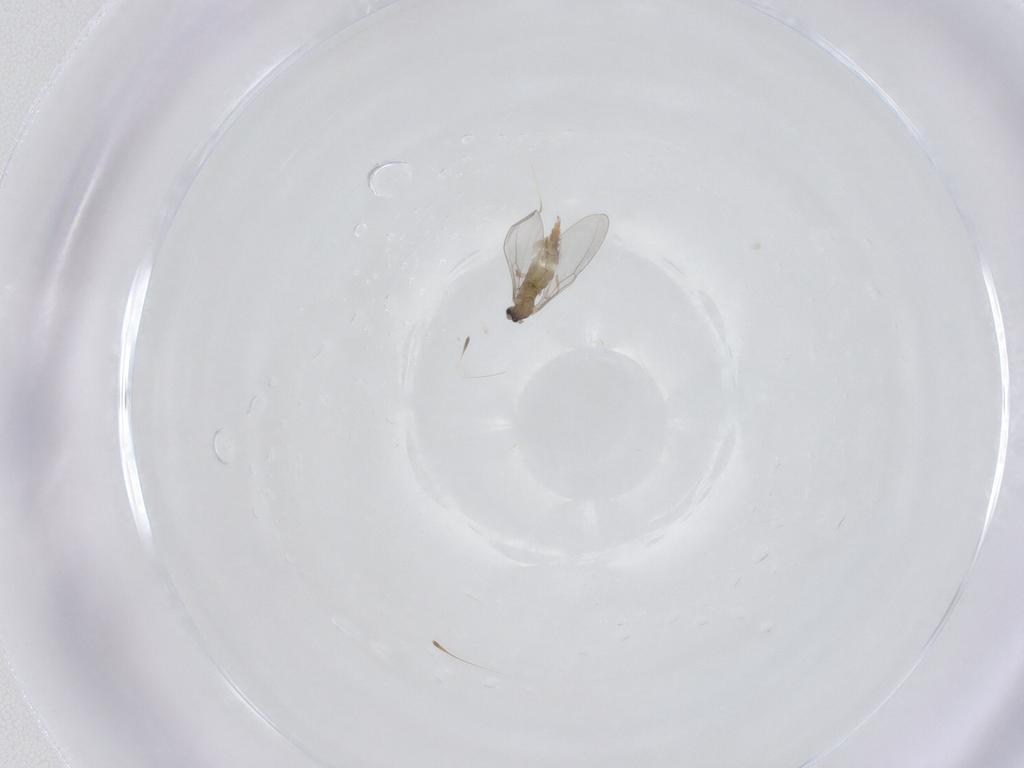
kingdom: Animalia
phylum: Arthropoda
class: Insecta
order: Diptera
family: Cecidomyiidae
